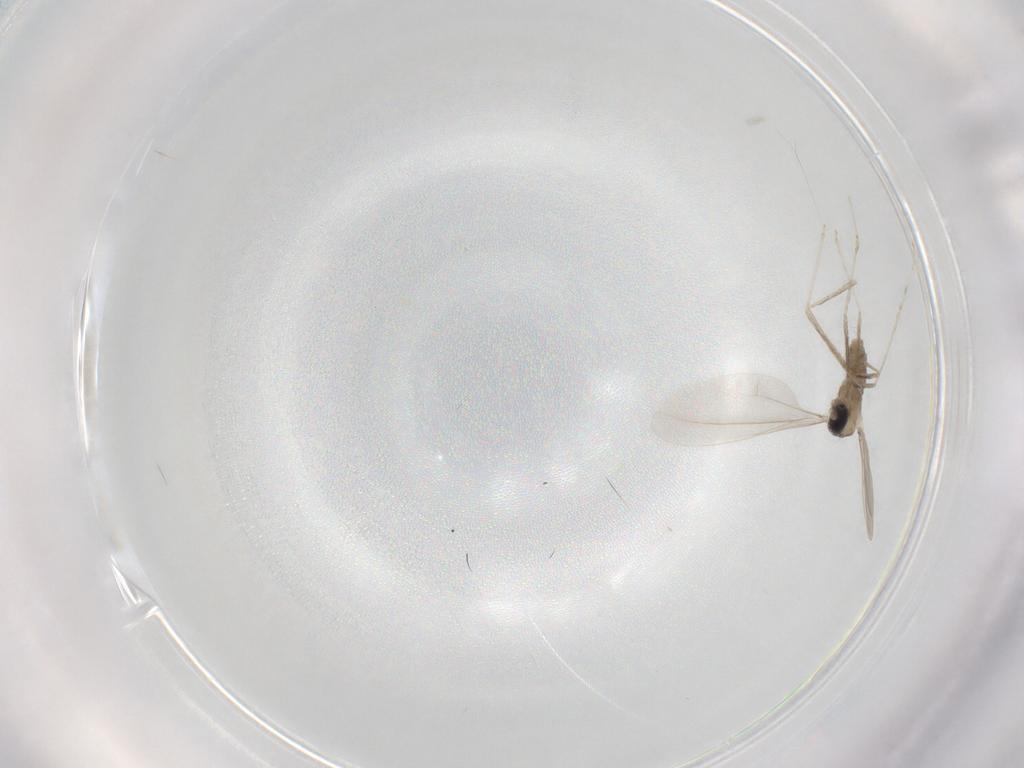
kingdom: Animalia
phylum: Arthropoda
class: Insecta
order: Diptera
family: Cecidomyiidae
